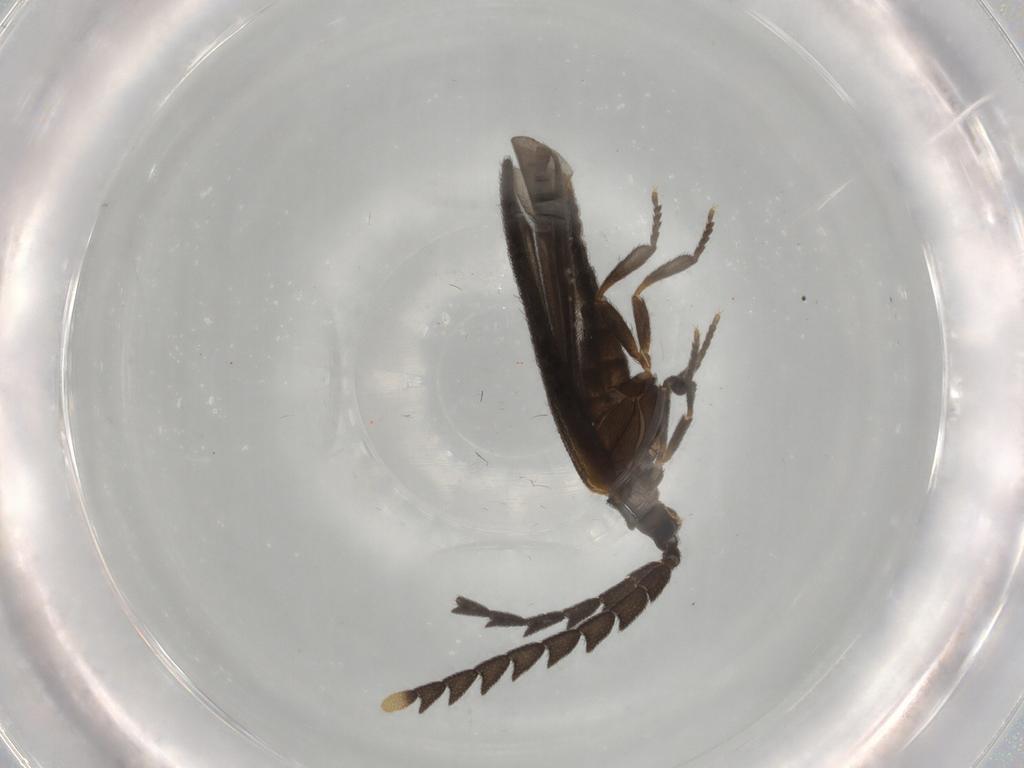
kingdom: Animalia
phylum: Arthropoda
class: Insecta
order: Coleoptera
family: Lycidae
